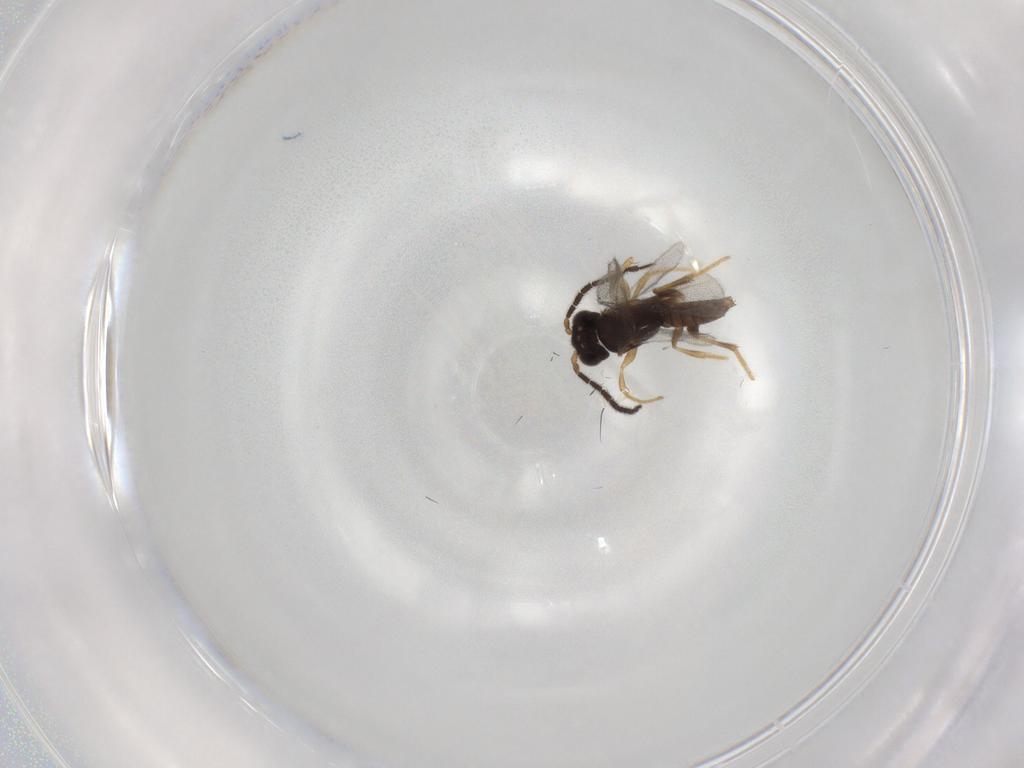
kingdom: Animalia
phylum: Arthropoda
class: Insecta
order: Hymenoptera
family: Dryinidae
